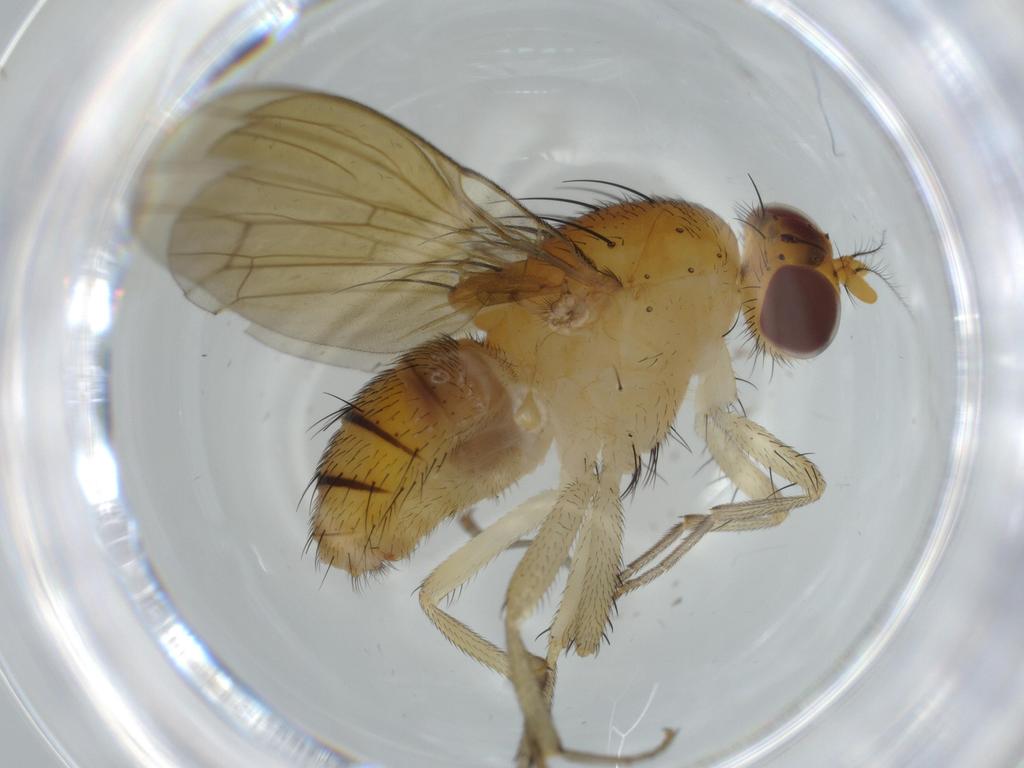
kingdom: Animalia
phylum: Arthropoda
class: Insecta
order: Diptera
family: Lauxaniidae
